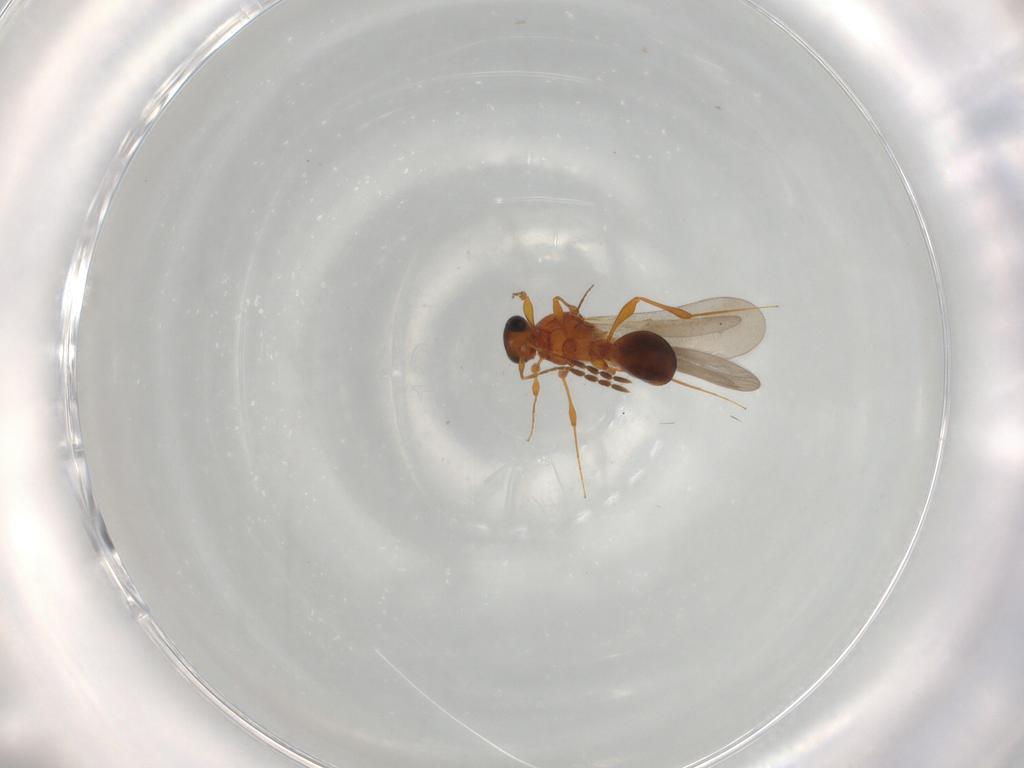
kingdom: Animalia
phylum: Arthropoda
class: Insecta
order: Hymenoptera
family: Platygastridae
